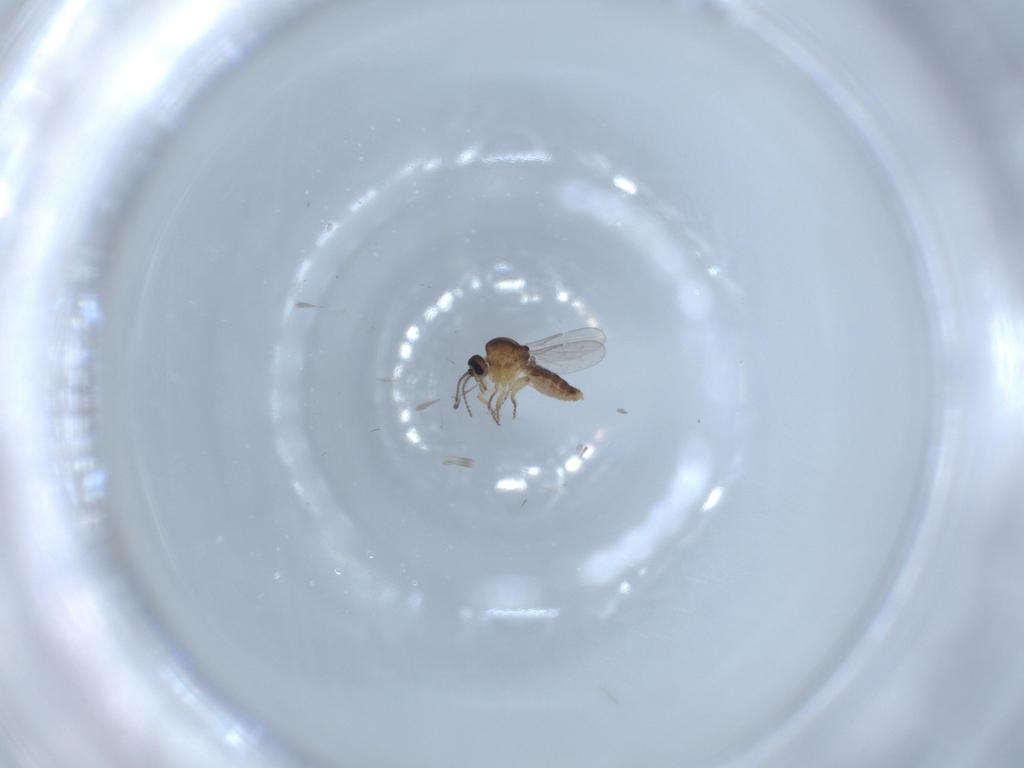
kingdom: Animalia
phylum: Arthropoda
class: Insecta
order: Diptera
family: Ceratopogonidae
